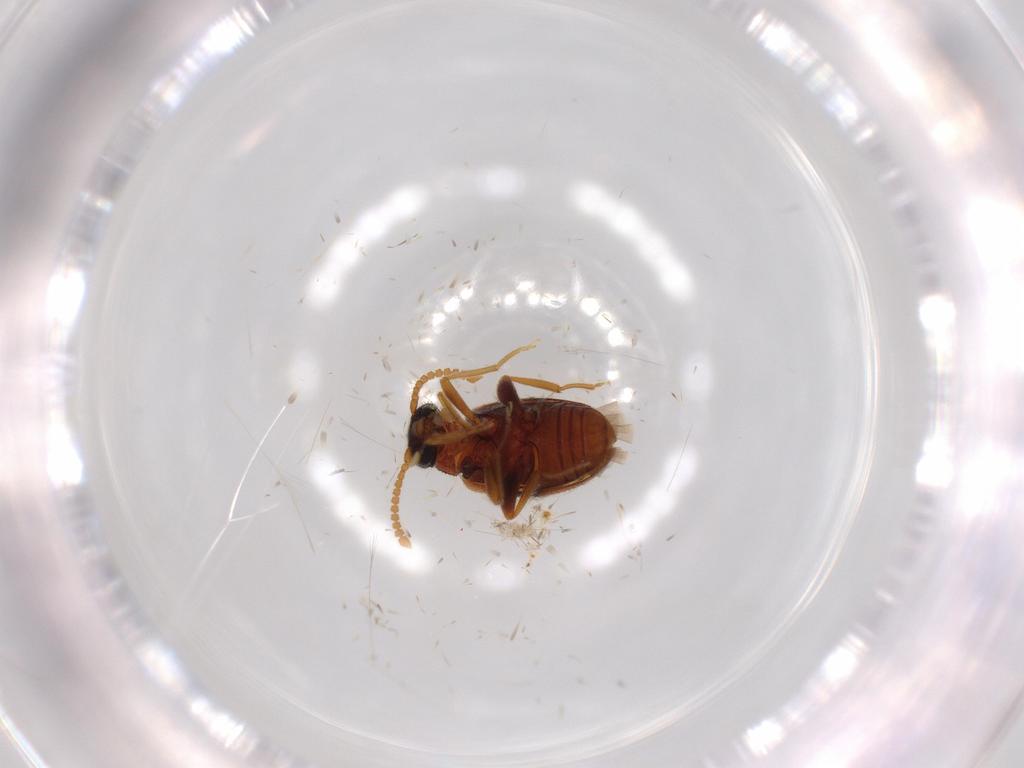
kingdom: Animalia
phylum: Arthropoda
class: Insecta
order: Coleoptera
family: Aderidae
